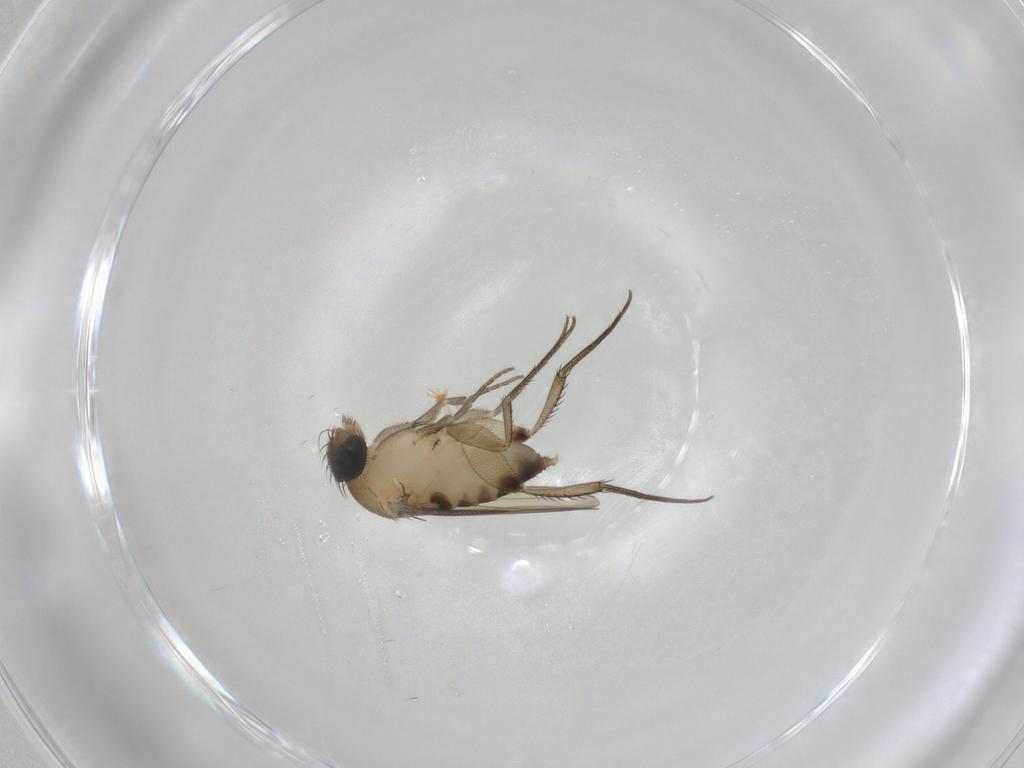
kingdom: Animalia
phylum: Arthropoda
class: Insecta
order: Diptera
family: Phoridae
